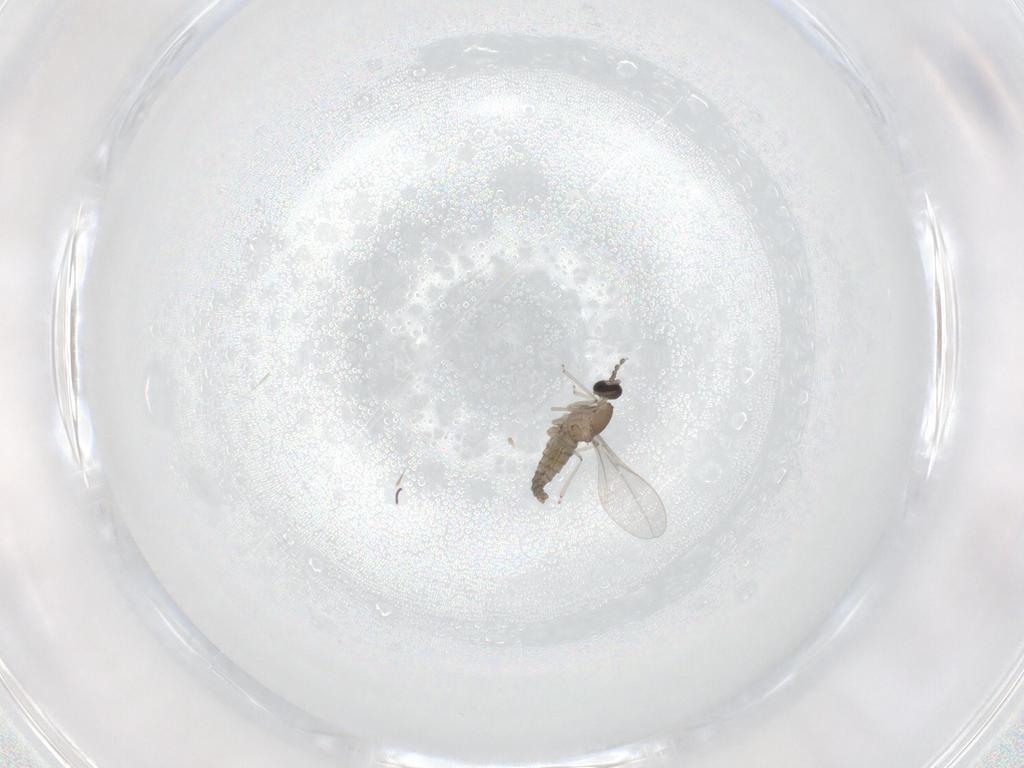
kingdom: Animalia
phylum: Arthropoda
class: Insecta
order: Diptera
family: Cecidomyiidae
